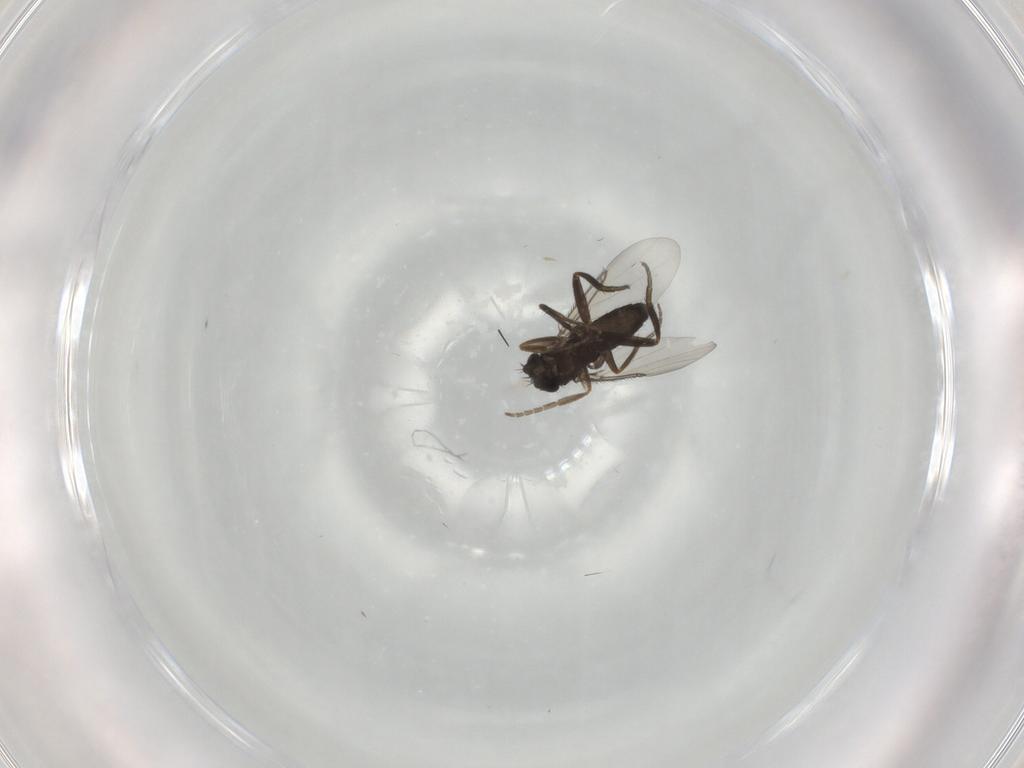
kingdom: Animalia
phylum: Arthropoda
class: Insecta
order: Diptera
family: Phoridae
